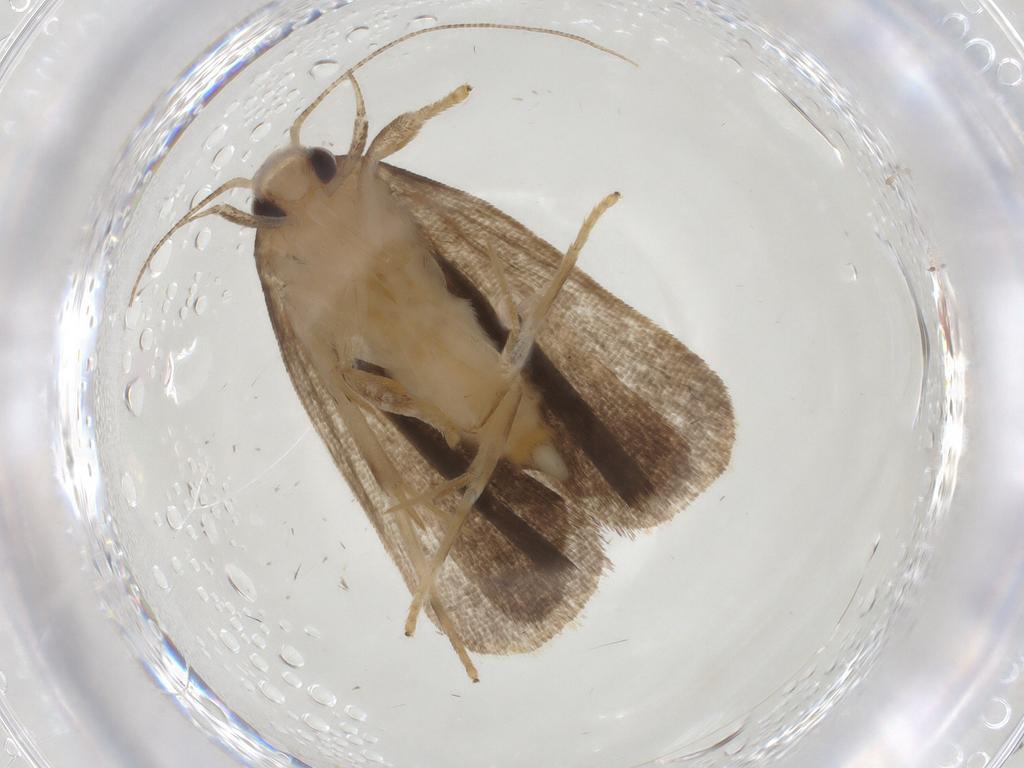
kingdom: Animalia
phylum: Arthropoda
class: Insecta
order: Lepidoptera
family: Gelechiidae
